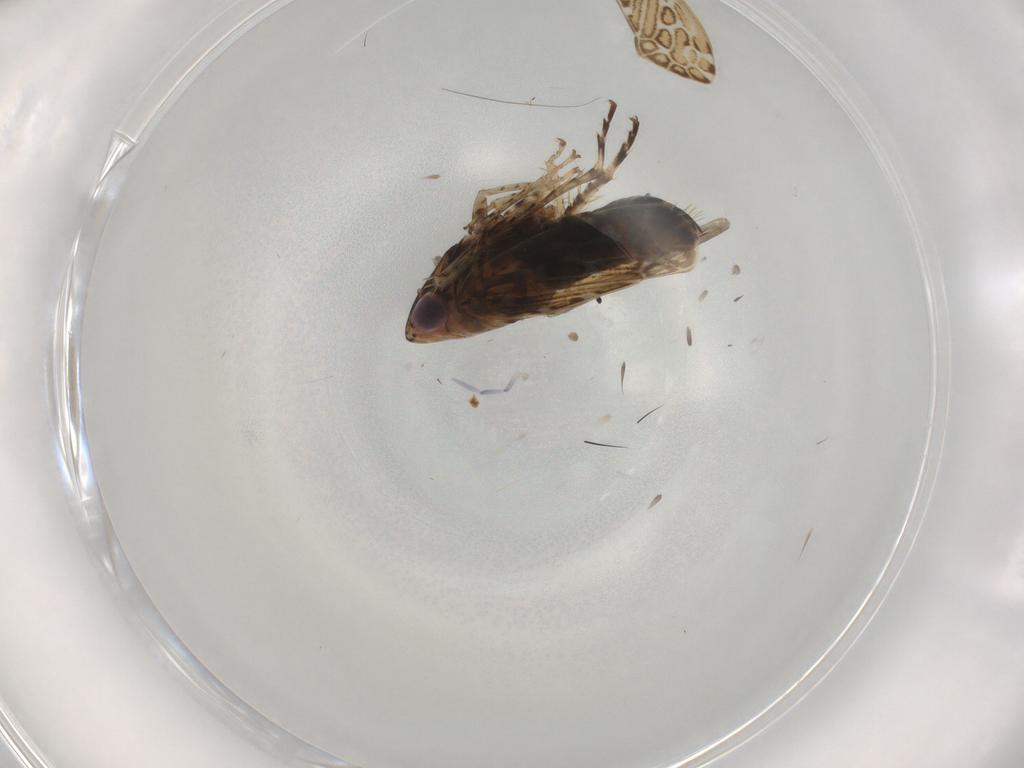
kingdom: Animalia
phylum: Arthropoda
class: Insecta
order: Hemiptera
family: Cicadellidae
